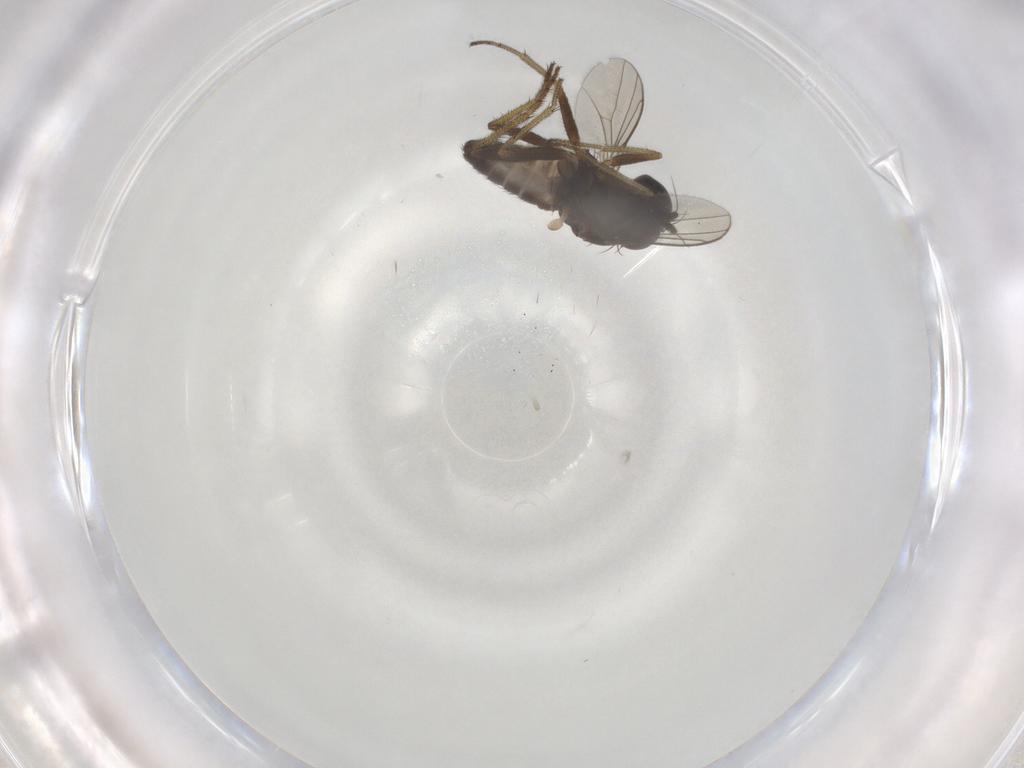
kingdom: Animalia
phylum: Arthropoda
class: Insecta
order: Diptera
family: Dolichopodidae
